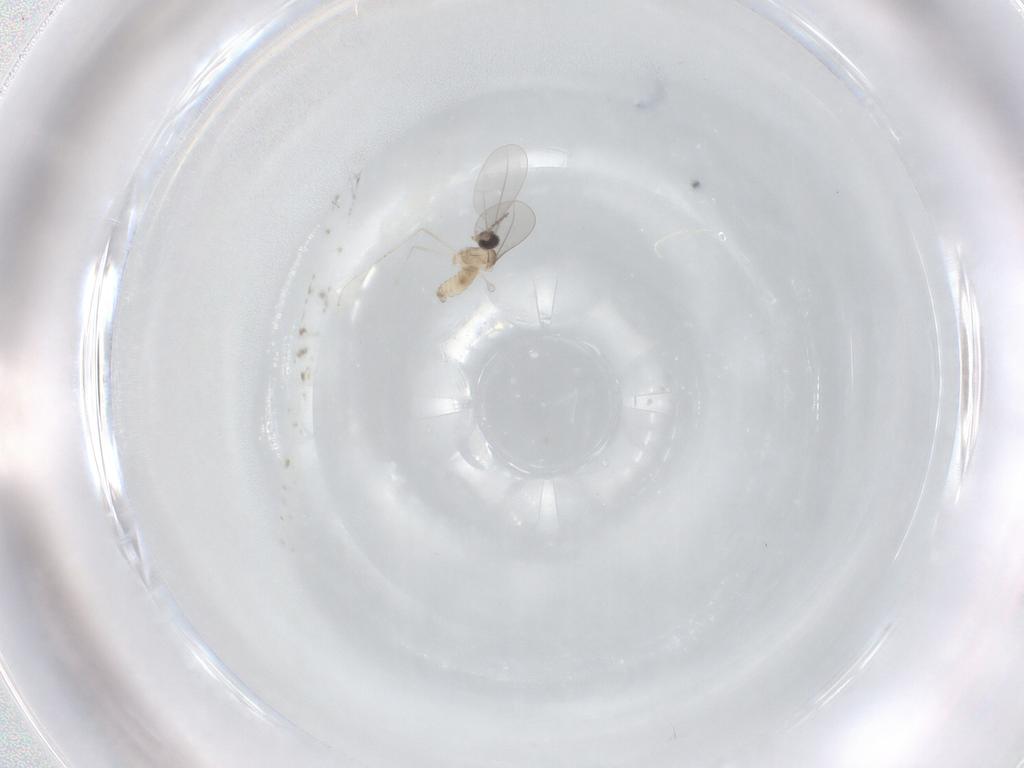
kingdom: Animalia
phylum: Arthropoda
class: Insecta
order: Diptera
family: Cecidomyiidae
